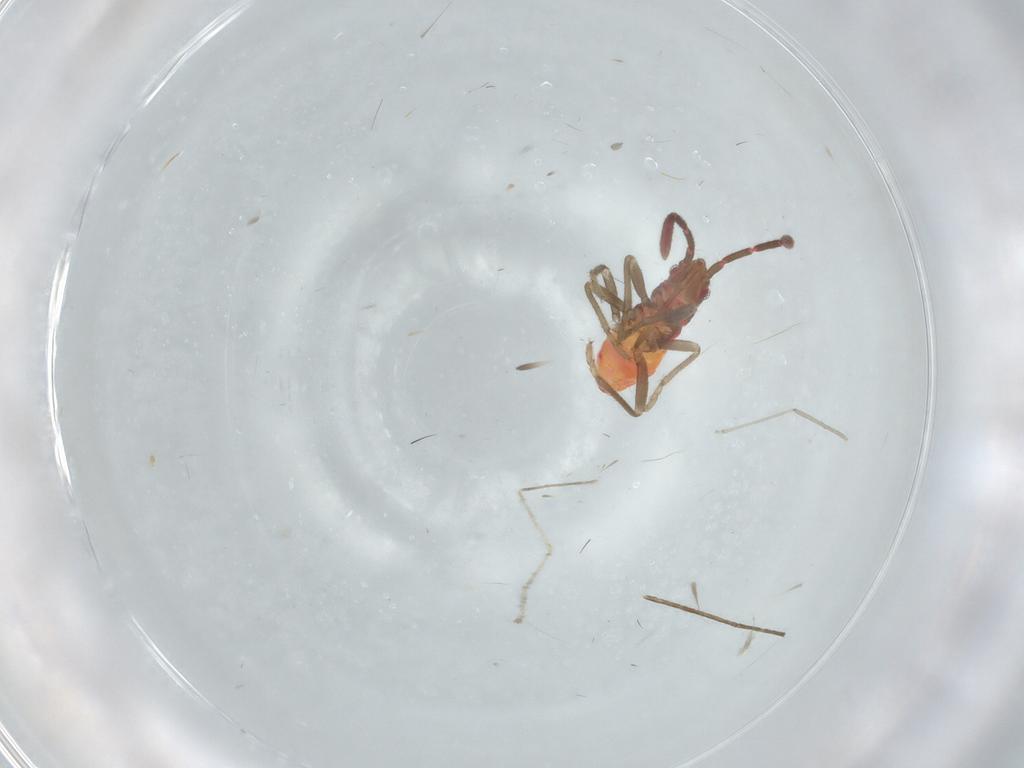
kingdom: Animalia
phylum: Arthropoda
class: Insecta
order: Hemiptera
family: Rhyparochromidae
